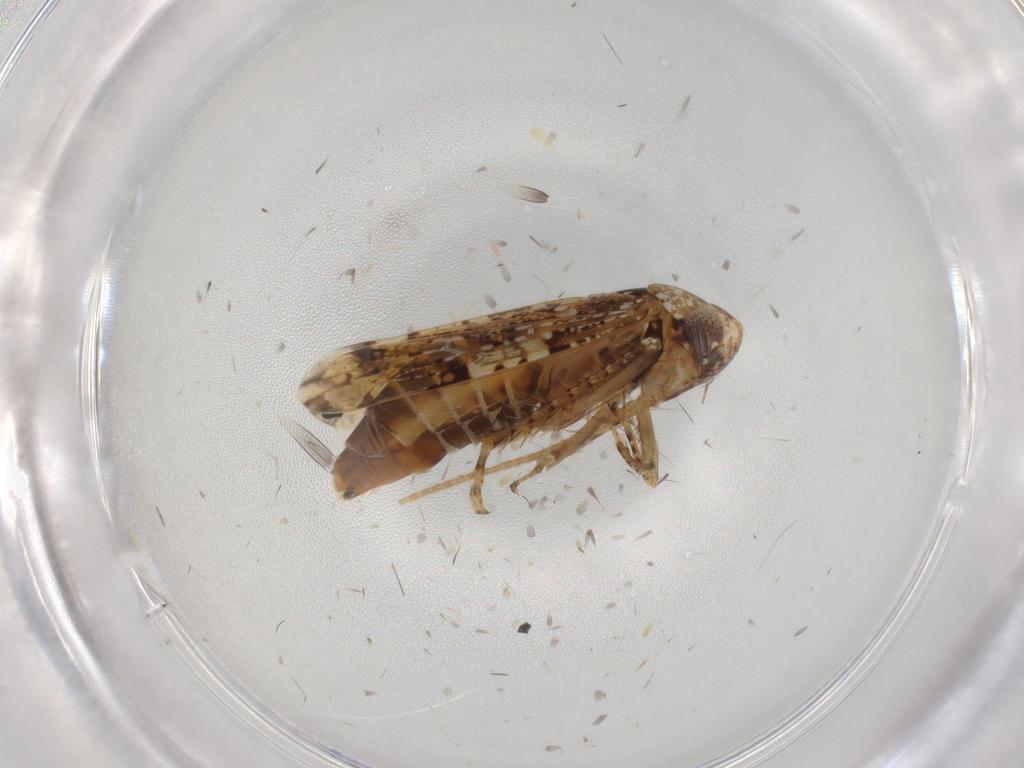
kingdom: Animalia
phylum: Arthropoda
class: Insecta
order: Hemiptera
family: Cicadellidae
